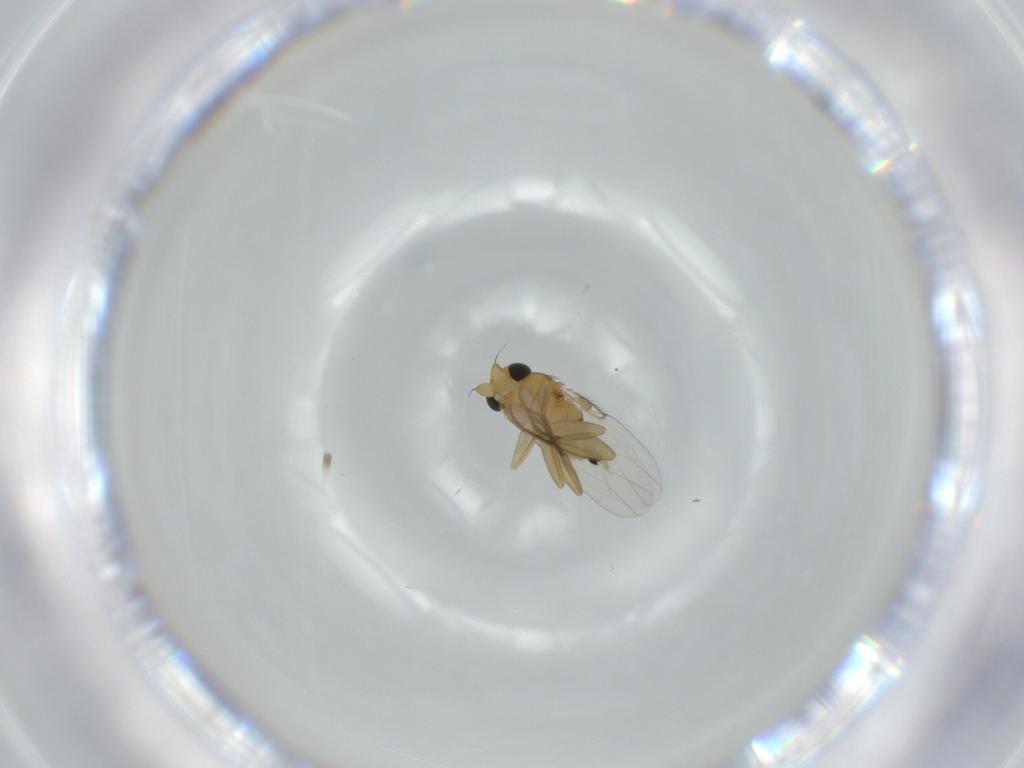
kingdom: Animalia
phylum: Arthropoda
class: Insecta
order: Diptera
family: Phoridae
